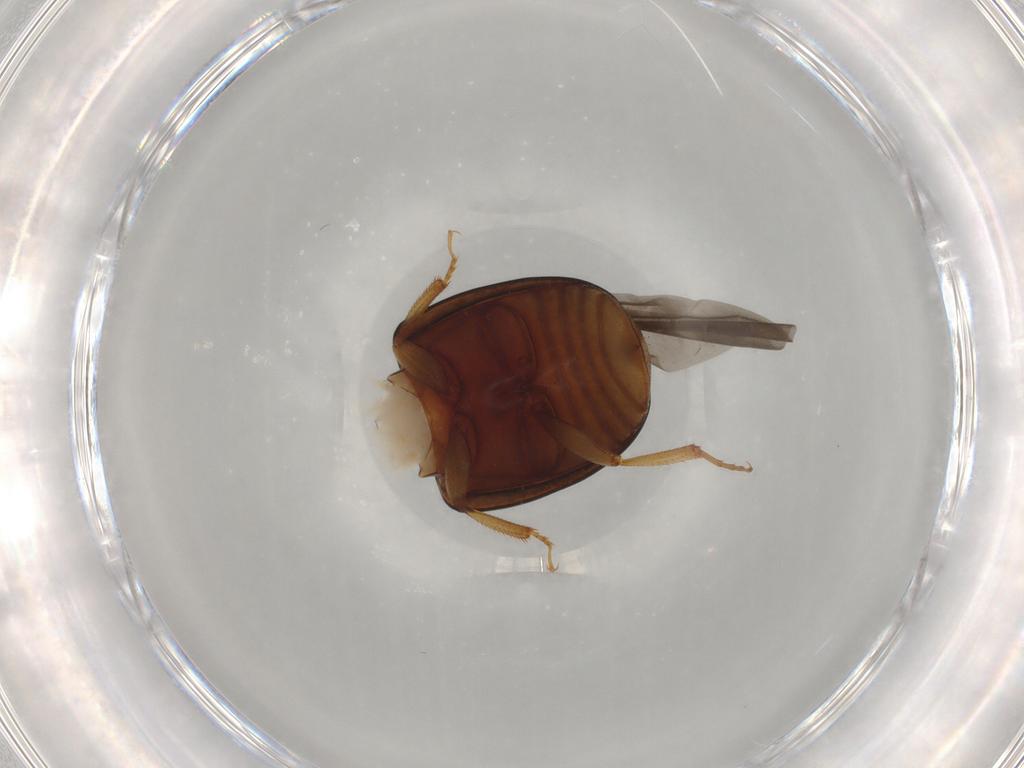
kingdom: Animalia
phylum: Arthropoda
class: Insecta
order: Coleoptera
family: Nitidulidae
